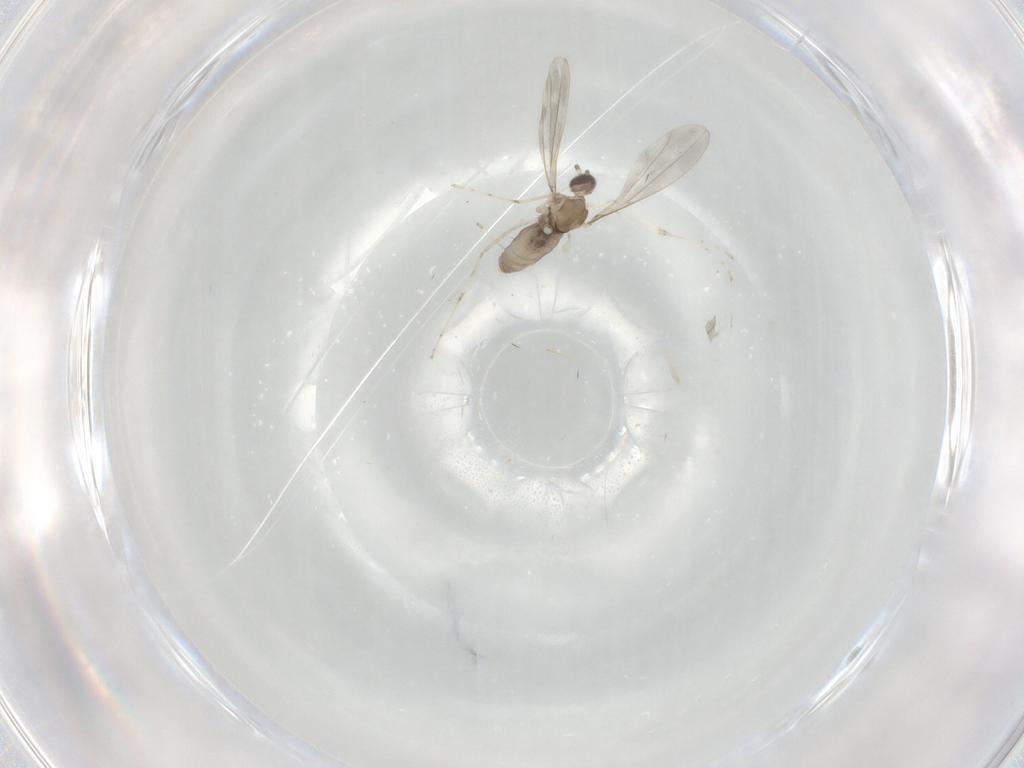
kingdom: Animalia
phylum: Arthropoda
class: Insecta
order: Diptera
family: Cecidomyiidae
